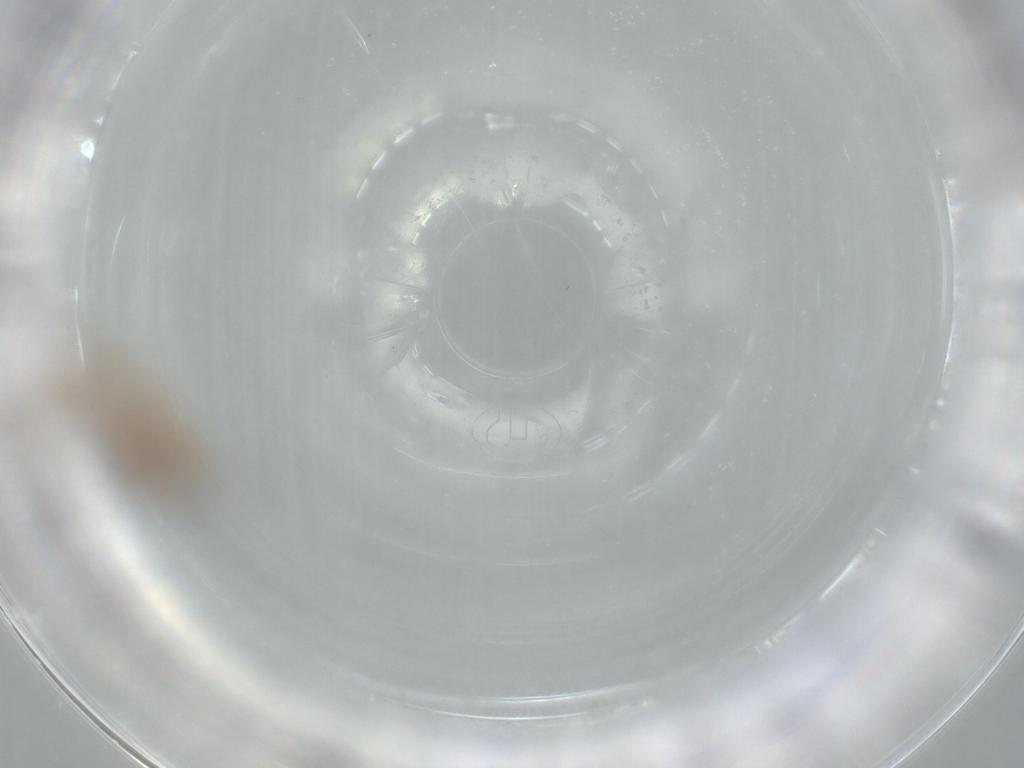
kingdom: Animalia
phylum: Arthropoda
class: Insecta
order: Hymenoptera
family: Scelionidae
